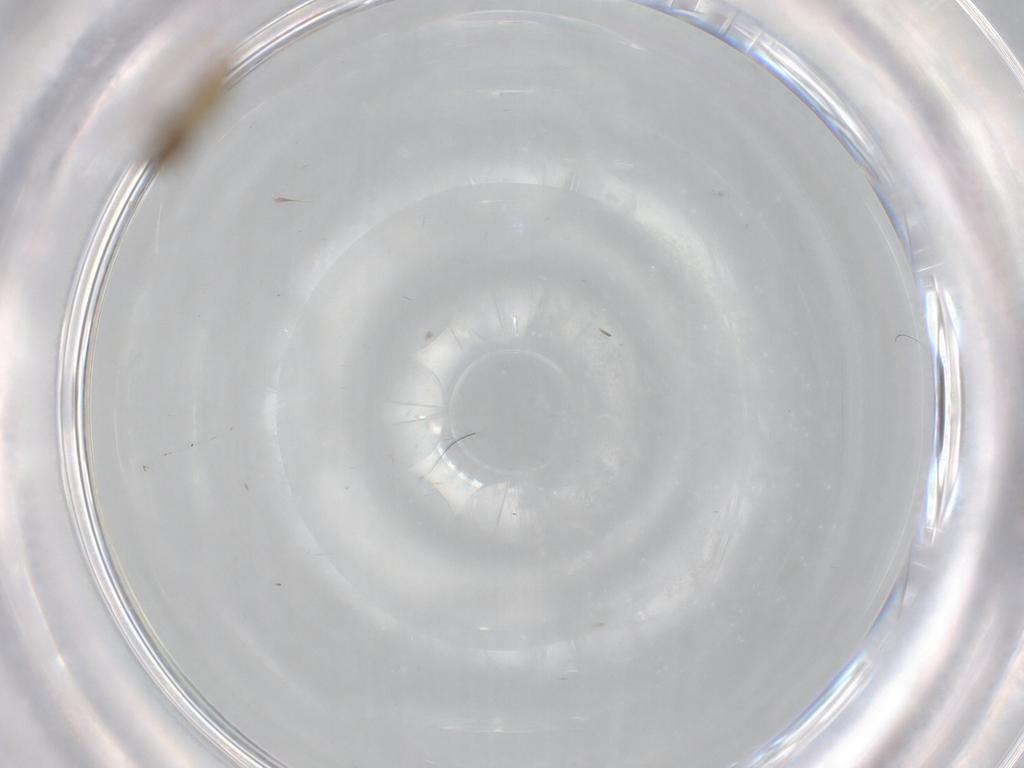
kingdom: Animalia
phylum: Arthropoda
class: Insecta
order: Diptera
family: Chironomidae
